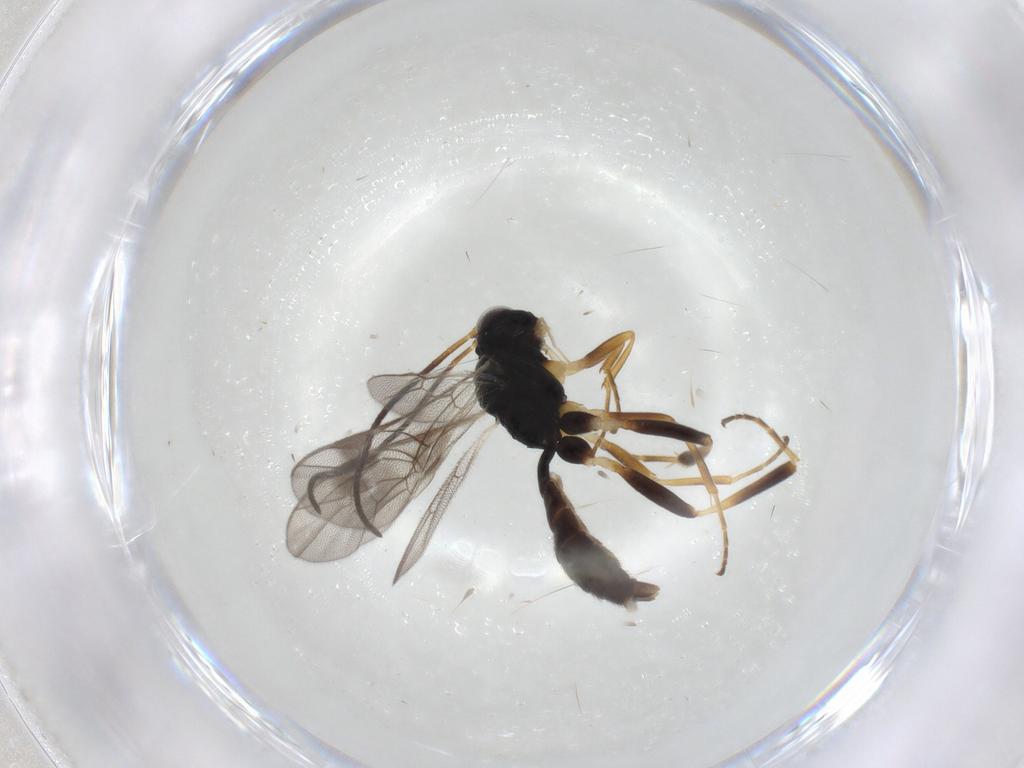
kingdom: Animalia
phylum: Arthropoda
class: Insecta
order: Hymenoptera
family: Ichneumonidae
